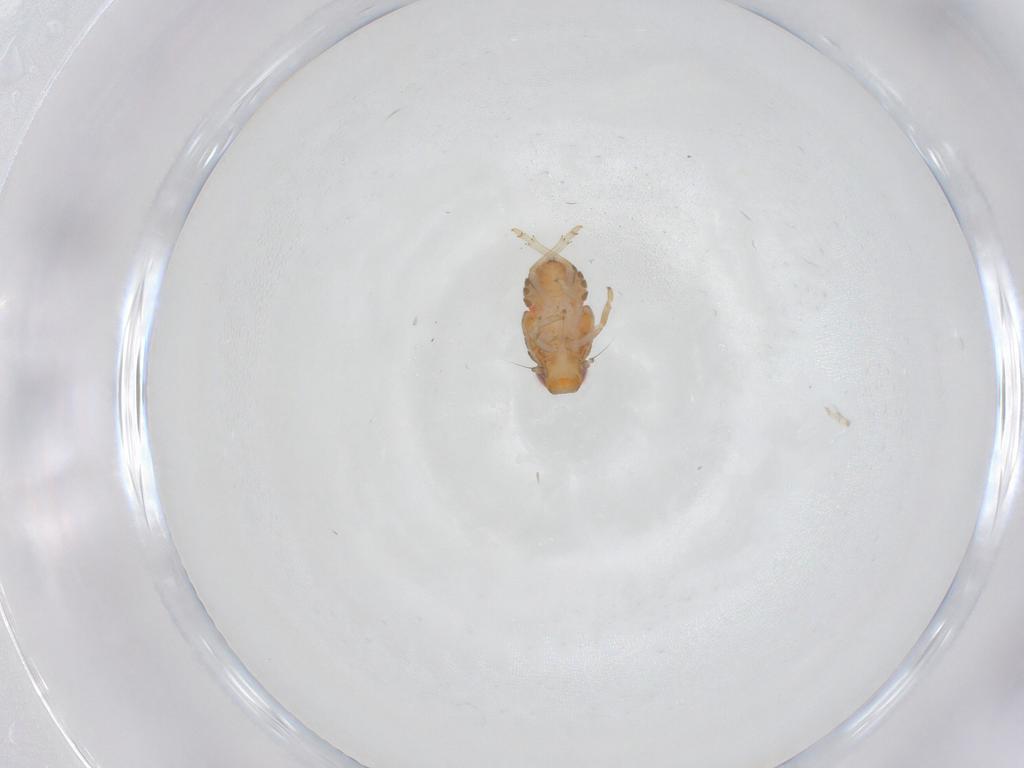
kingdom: Animalia
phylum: Arthropoda
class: Insecta
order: Hemiptera
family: Issidae
